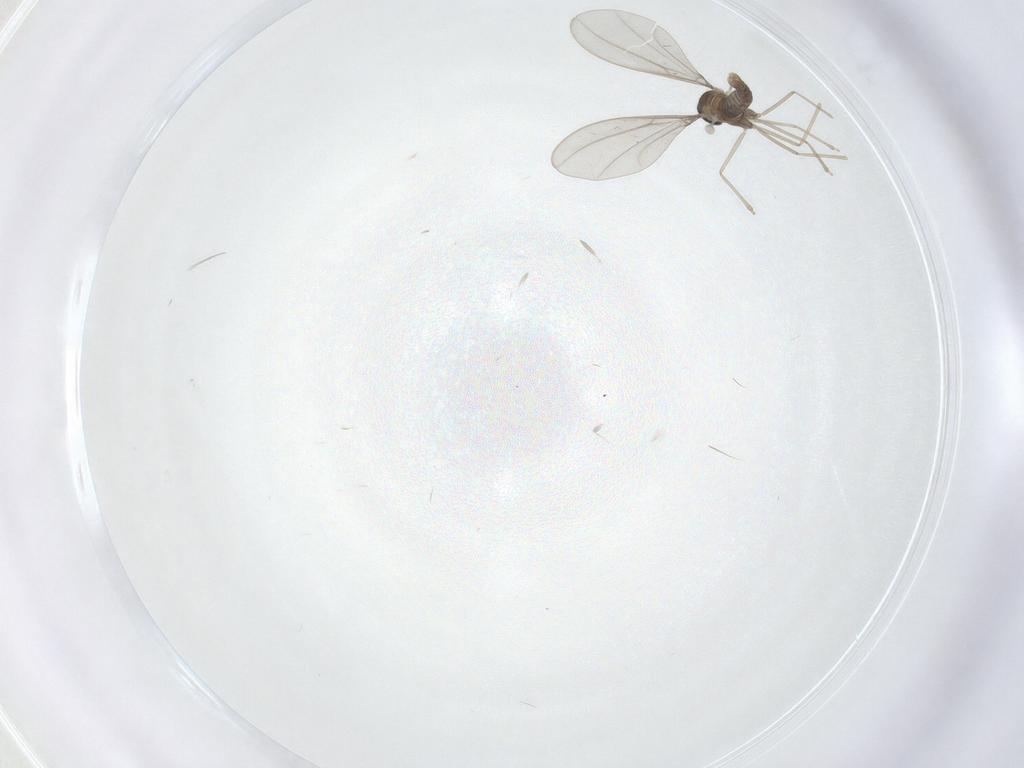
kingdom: Animalia
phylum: Arthropoda
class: Insecta
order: Diptera
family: Cecidomyiidae
